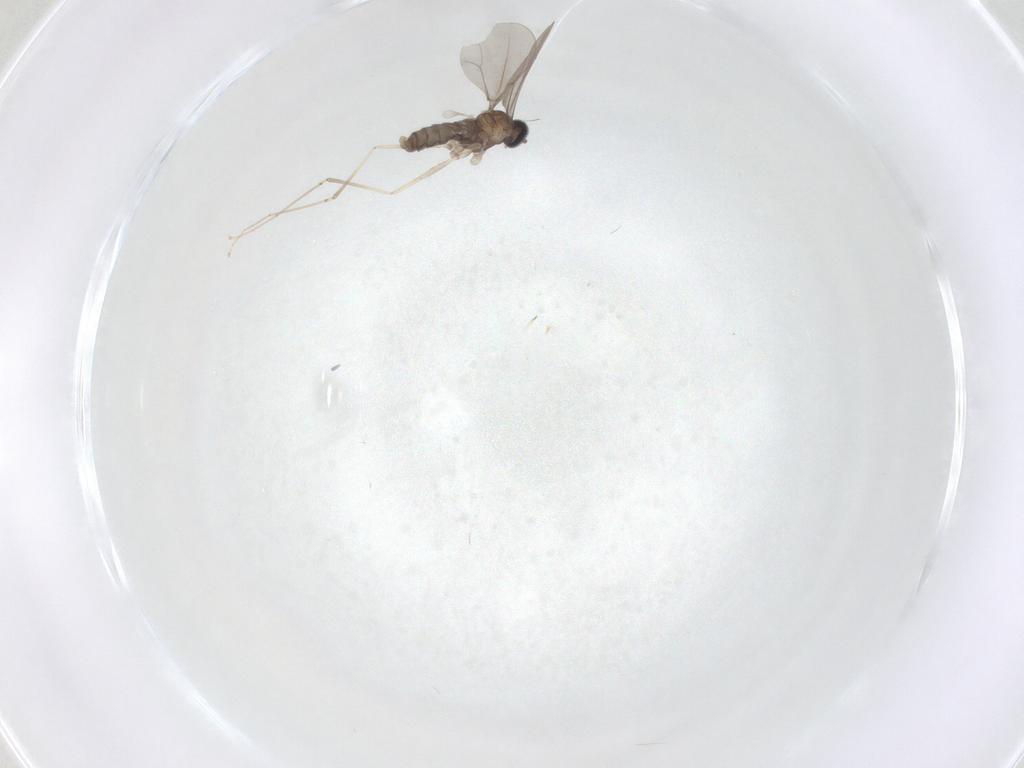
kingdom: Animalia
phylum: Arthropoda
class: Insecta
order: Diptera
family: Cecidomyiidae
